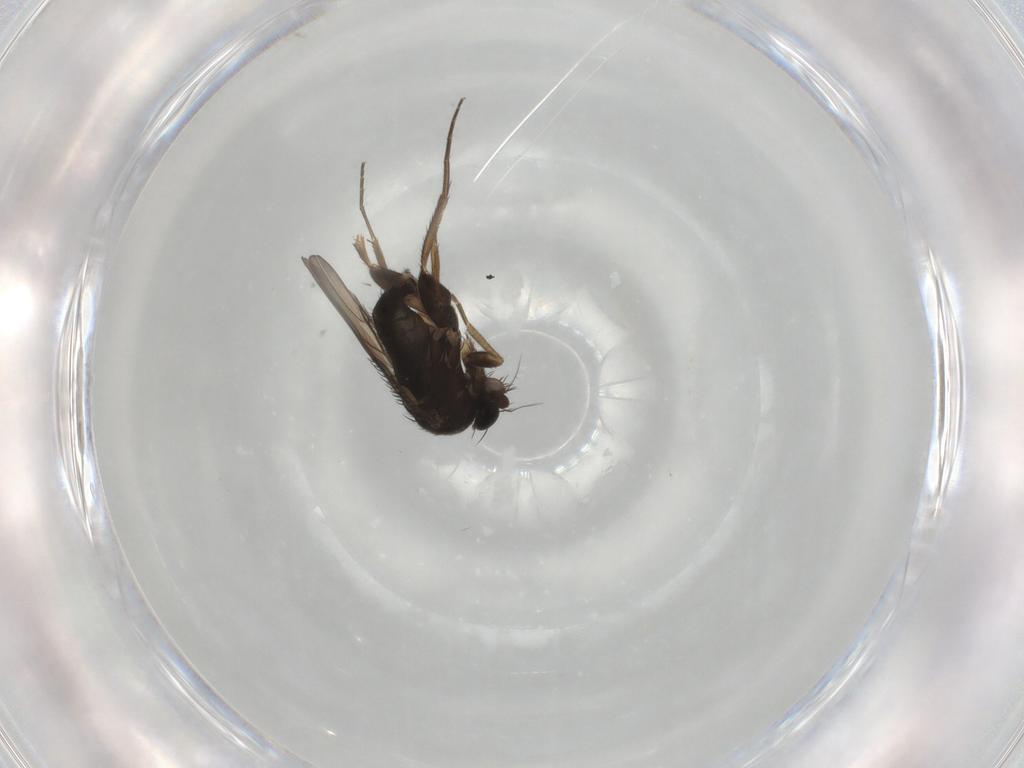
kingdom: Animalia
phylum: Arthropoda
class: Insecta
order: Diptera
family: Phoridae
